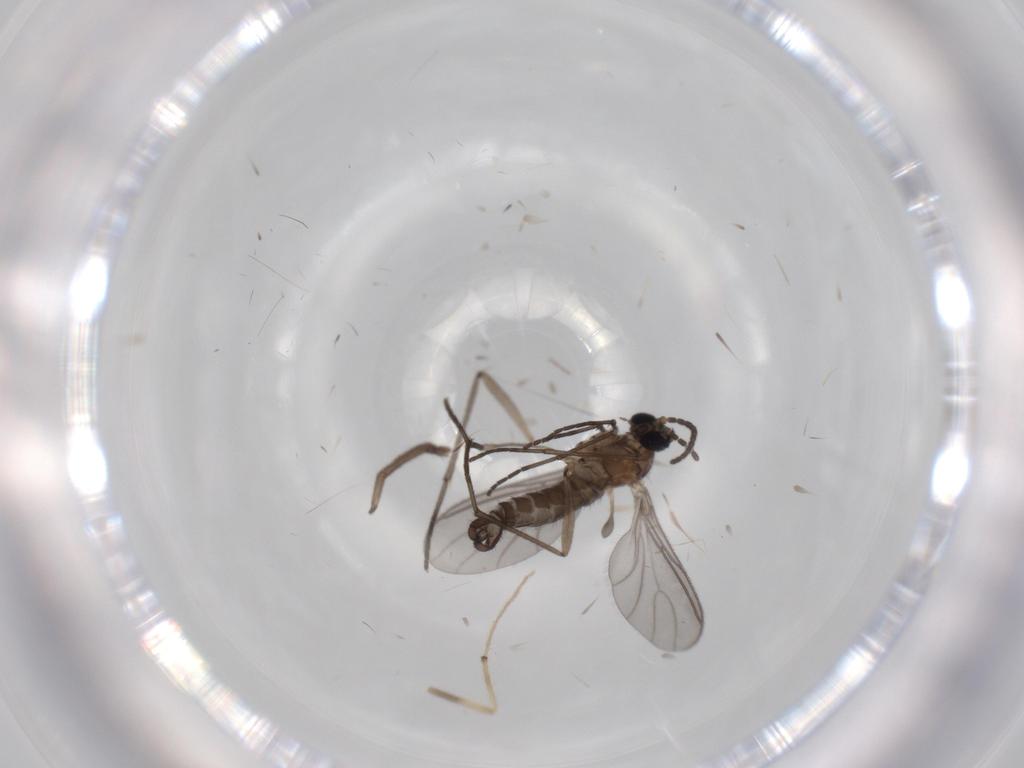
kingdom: Animalia
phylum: Arthropoda
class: Insecta
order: Diptera
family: Sciaridae
